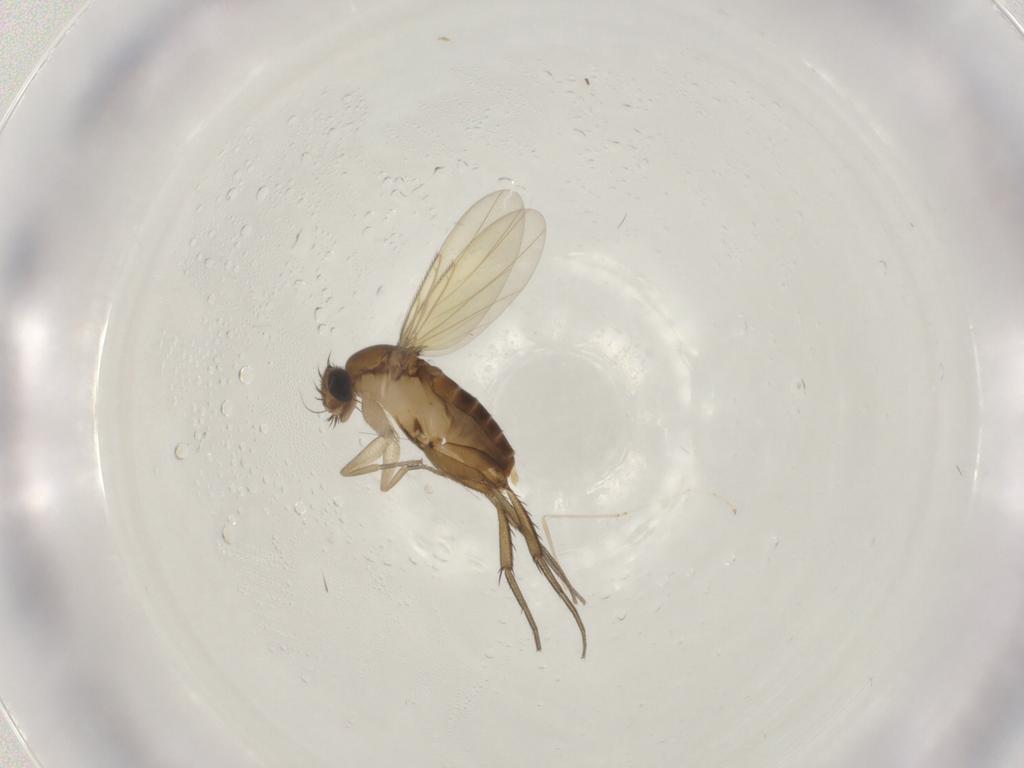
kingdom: Animalia
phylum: Arthropoda
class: Insecta
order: Diptera
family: Phoridae
